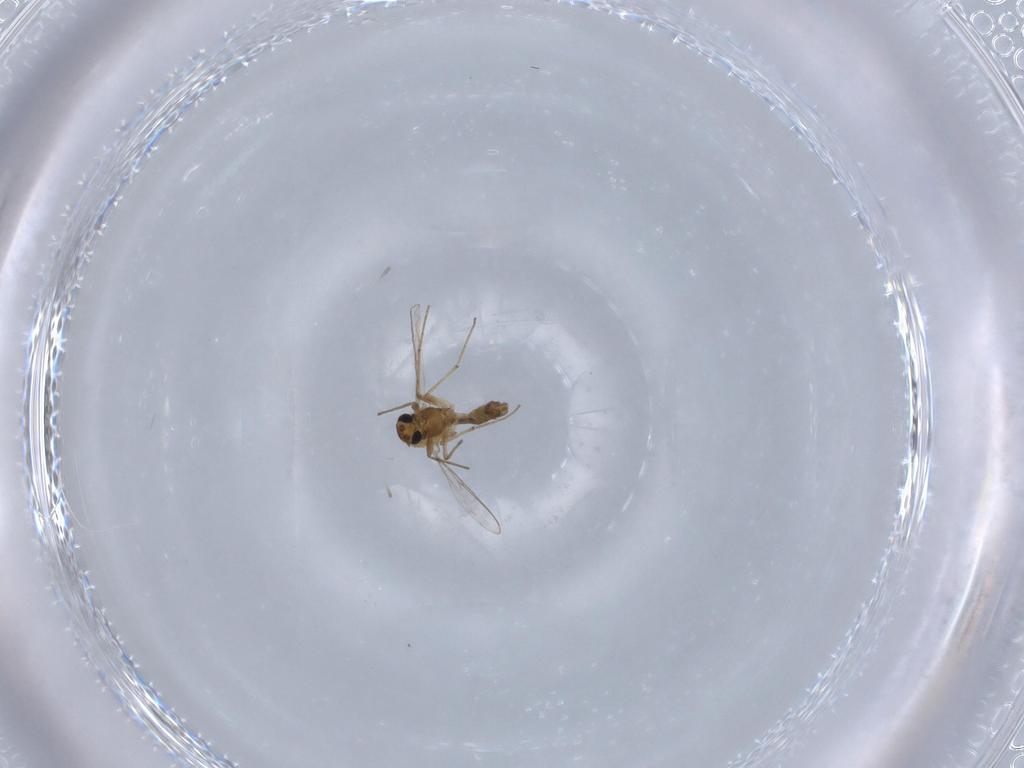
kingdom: Animalia
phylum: Arthropoda
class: Insecta
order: Diptera
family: Chironomidae
